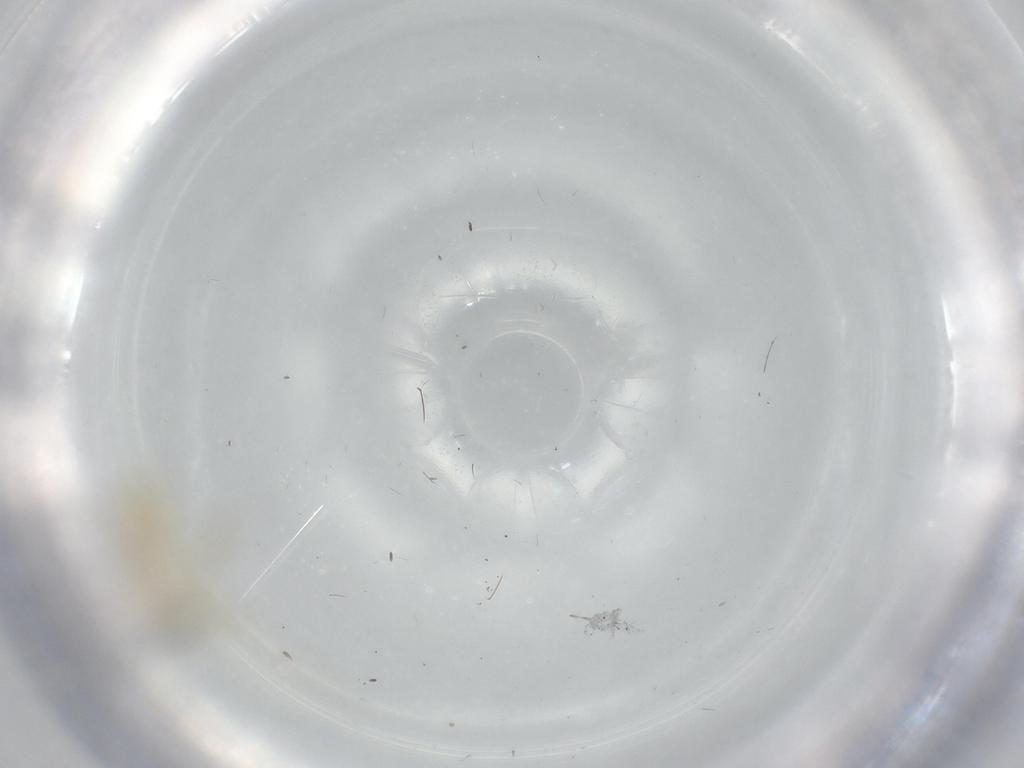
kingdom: Animalia
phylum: Arthropoda
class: Insecta
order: Diptera
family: Chironomidae
